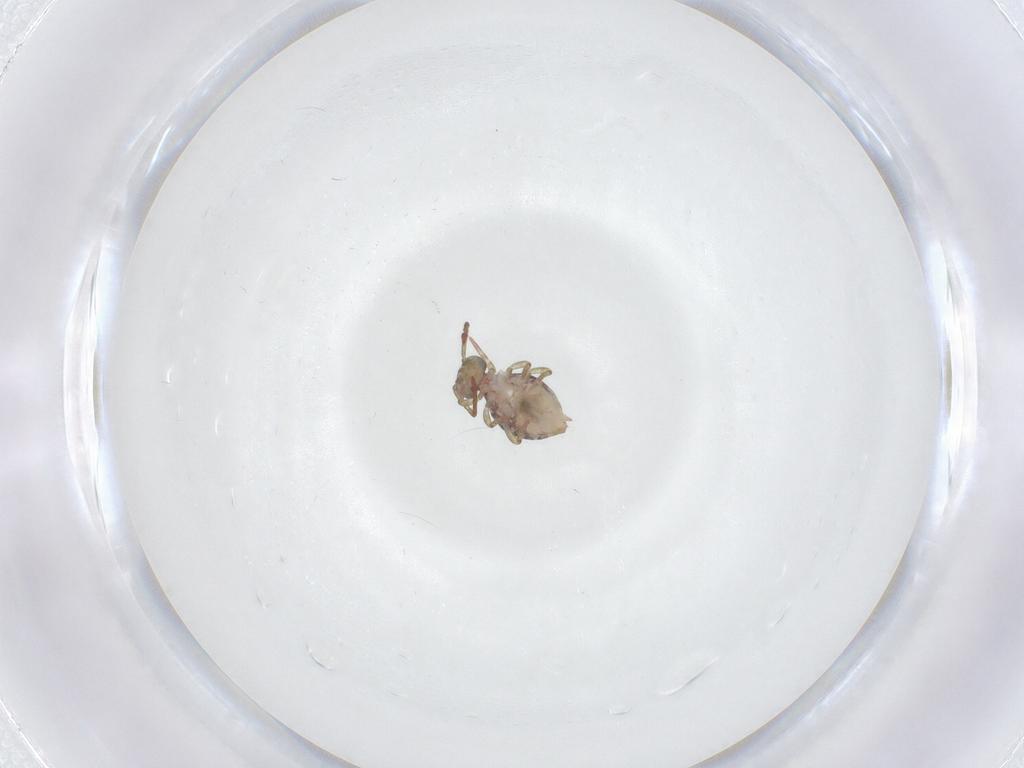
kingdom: Animalia
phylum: Arthropoda
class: Collembola
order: Symphypleona
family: Dicyrtomidae
